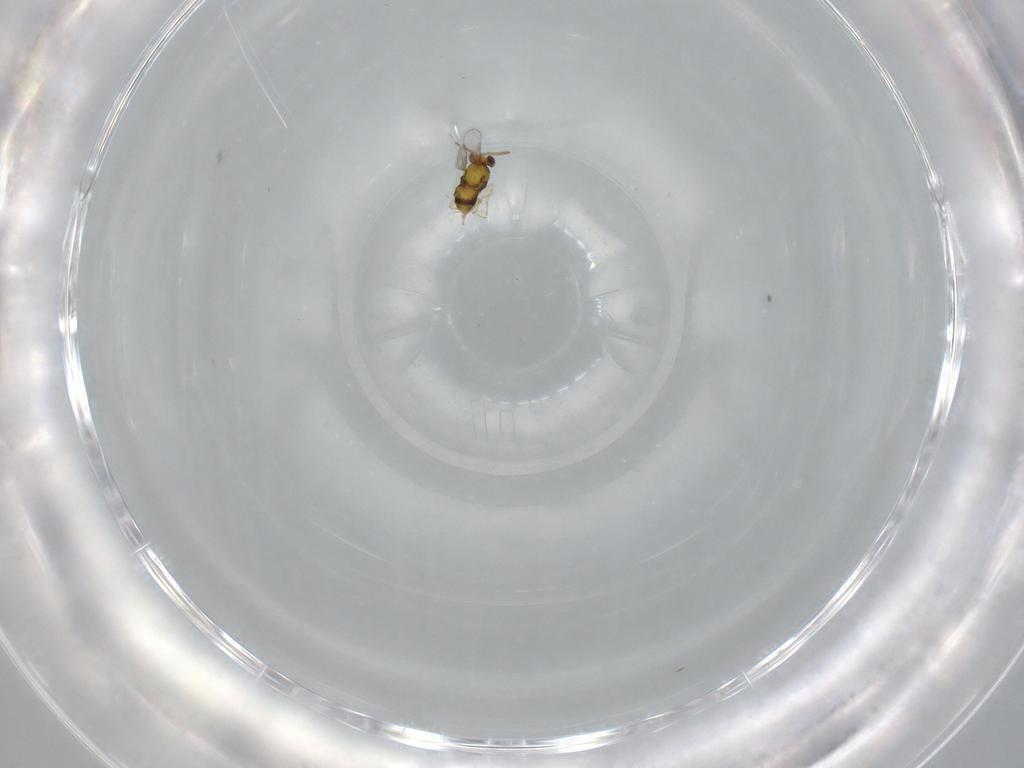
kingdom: Animalia
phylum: Arthropoda
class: Insecta
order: Hymenoptera
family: Aphelinidae
